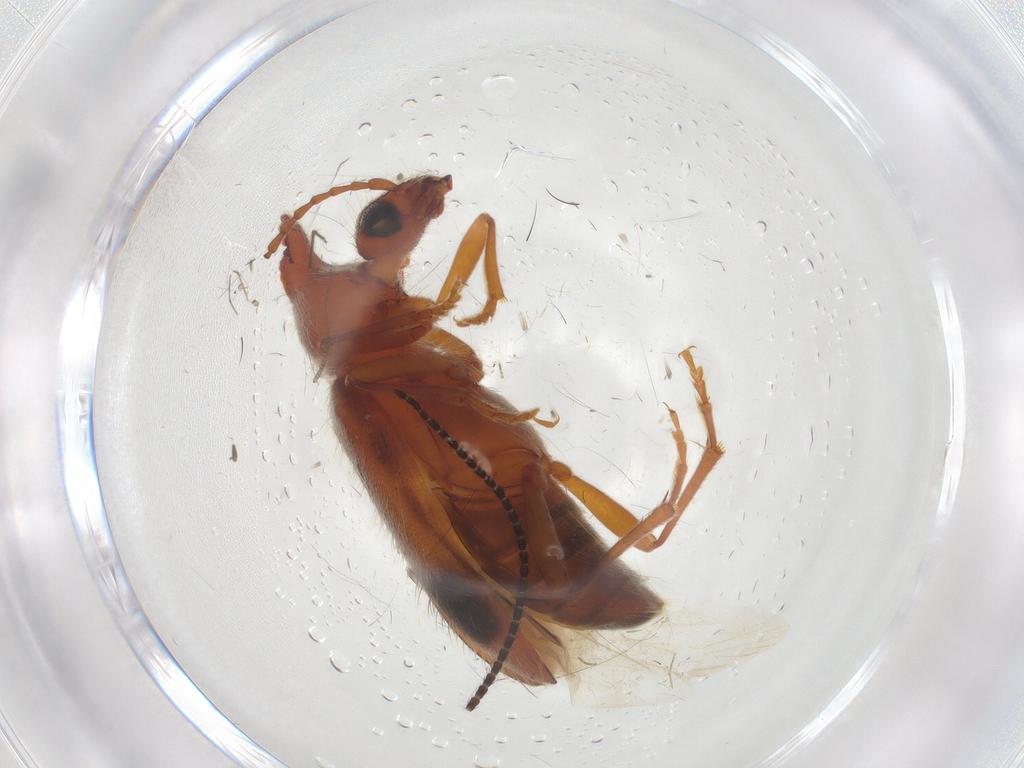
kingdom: Animalia
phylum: Arthropoda
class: Insecta
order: Coleoptera
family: Anthicidae
